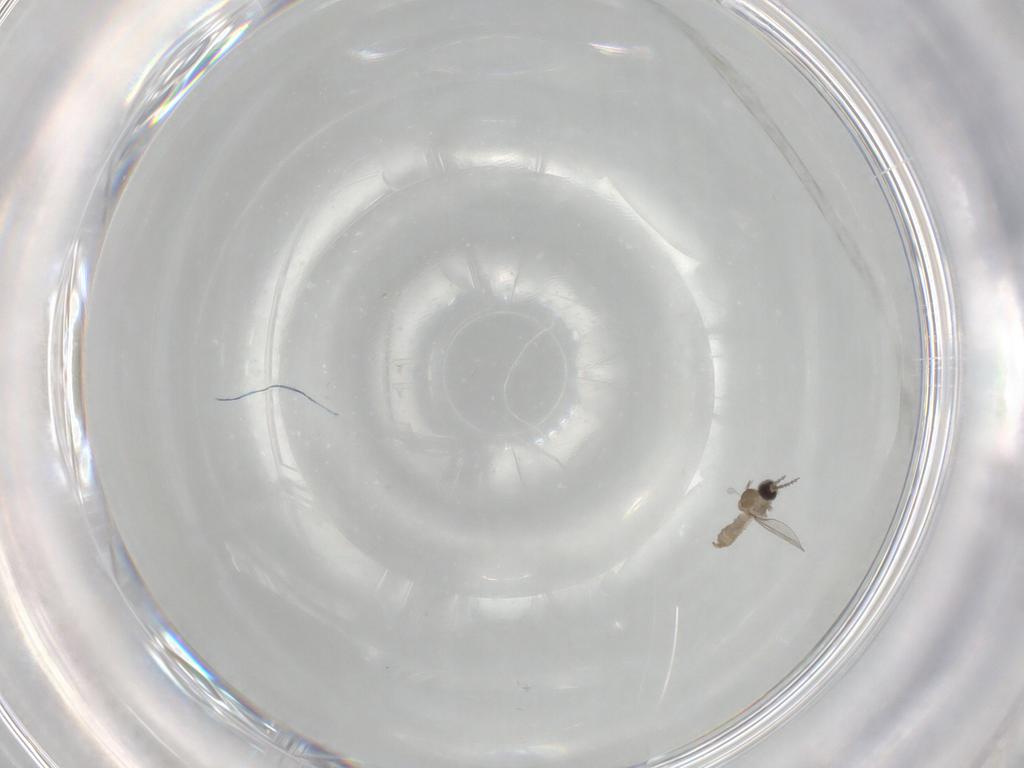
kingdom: Animalia
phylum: Arthropoda
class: Insecta
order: Diptera
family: Cecidomyiidae
